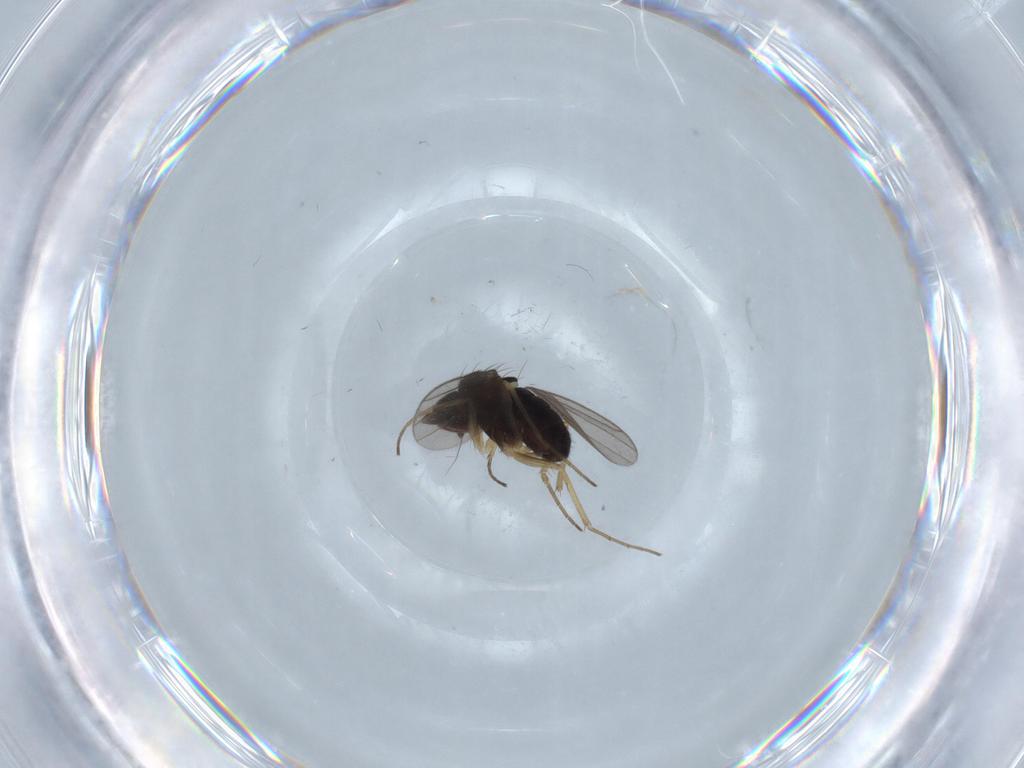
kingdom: Animalia
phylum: Arthropoda
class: Insecta
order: Diptera
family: Dolichopodidae
